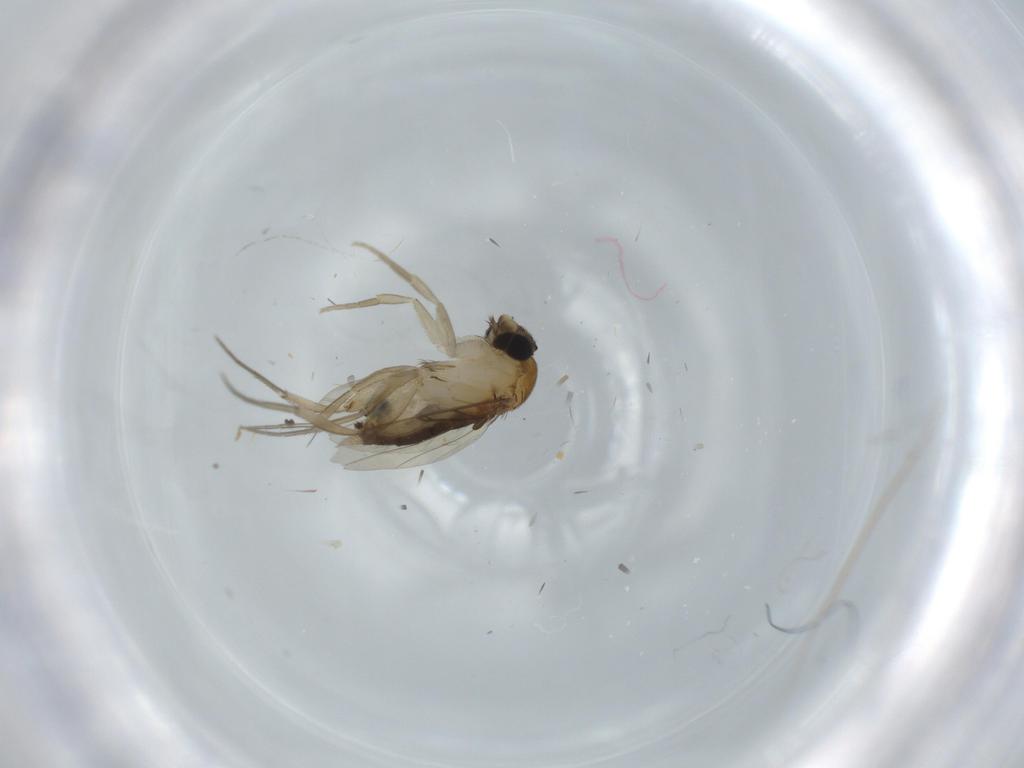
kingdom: Animalia
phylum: Arthropoda
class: Insecta
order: Diptera
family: Phoridae
